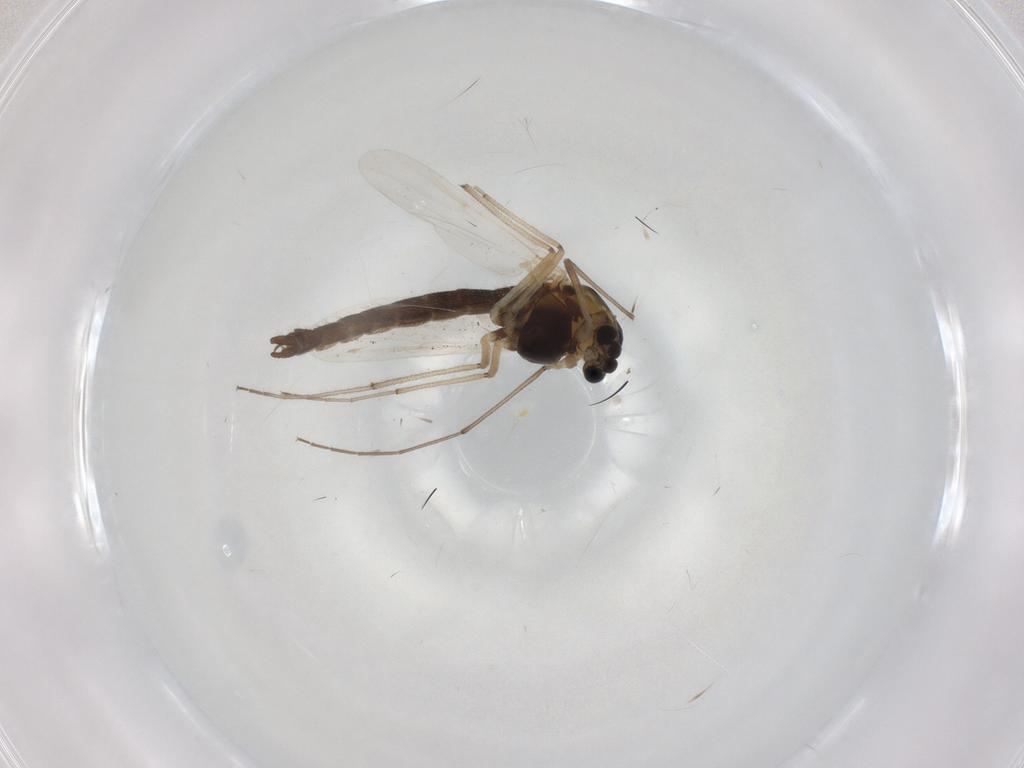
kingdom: Animalia
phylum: Arthropoda
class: Insecta
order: Diptera
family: Chironomidae
